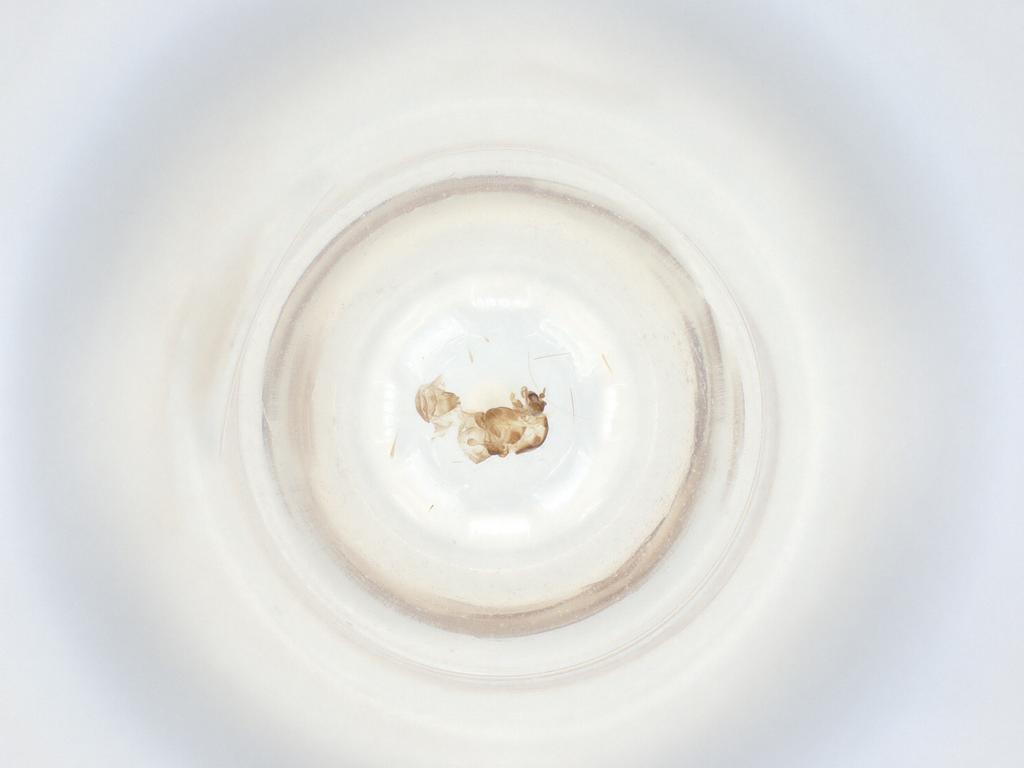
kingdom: Animalia
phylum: Arthropoda
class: Insecta
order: Diptera
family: Chironomidae
